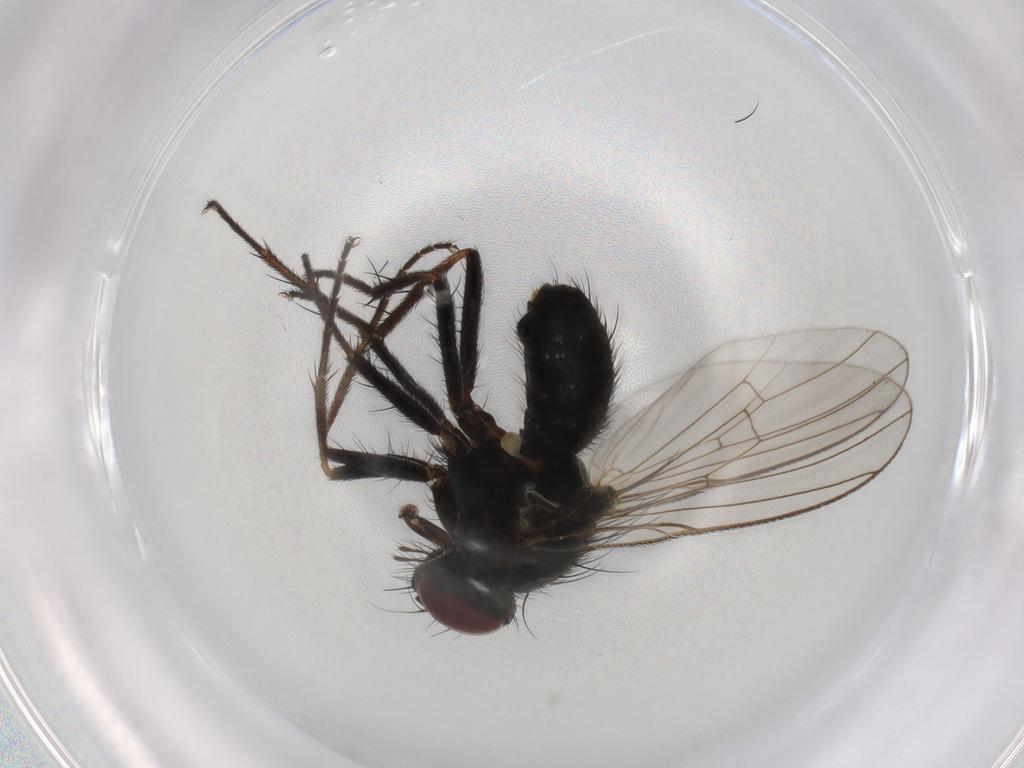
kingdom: Animalia
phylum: Arthropoda
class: Insecta
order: Diptera
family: Muscidae
